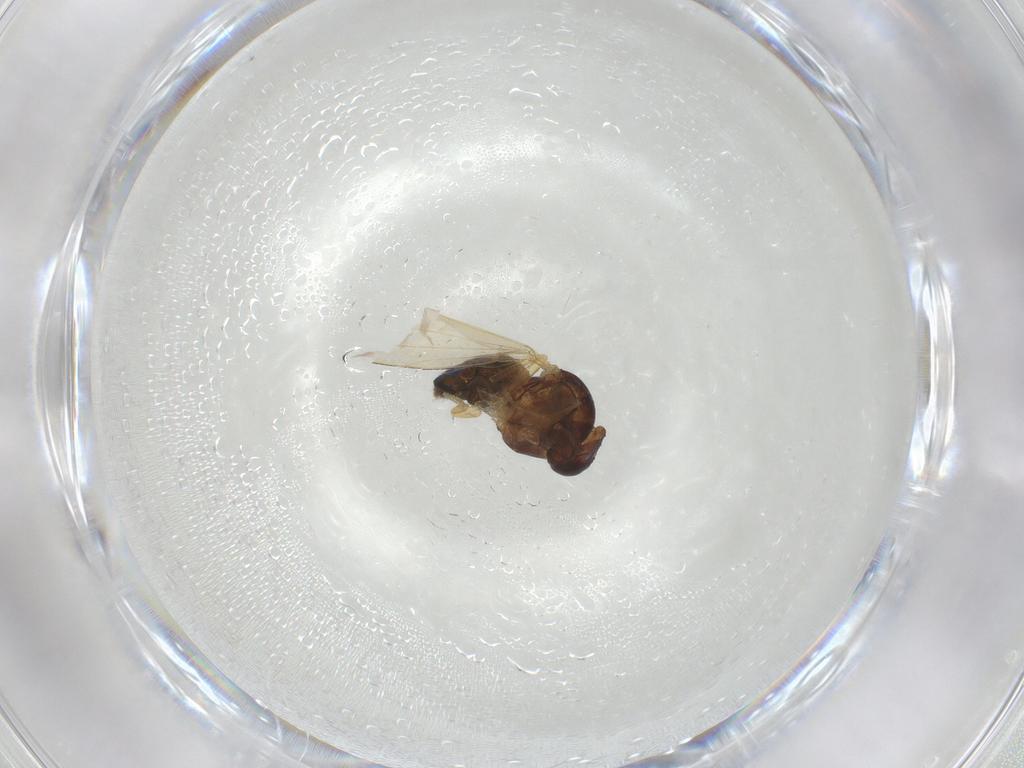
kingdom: Animalia
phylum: Arthropoda
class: Insecta
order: Diptera
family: Ephydridae
